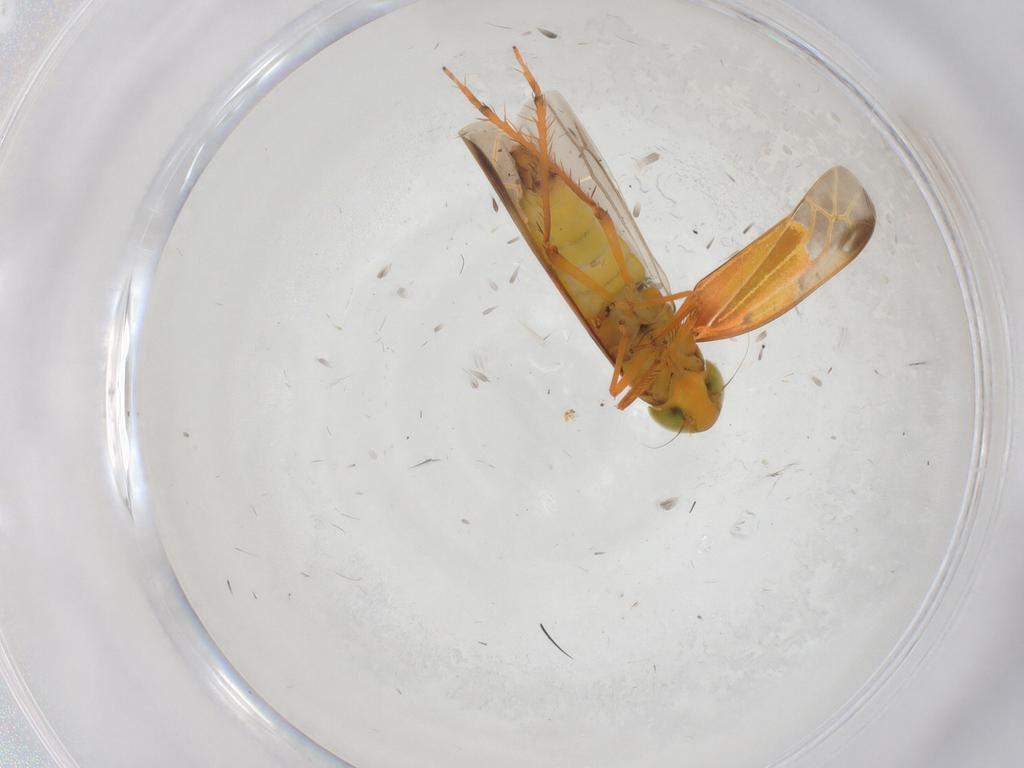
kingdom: Animalia
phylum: Arthropoda
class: Insecta
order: Hemiptera
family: Cicadellidae
